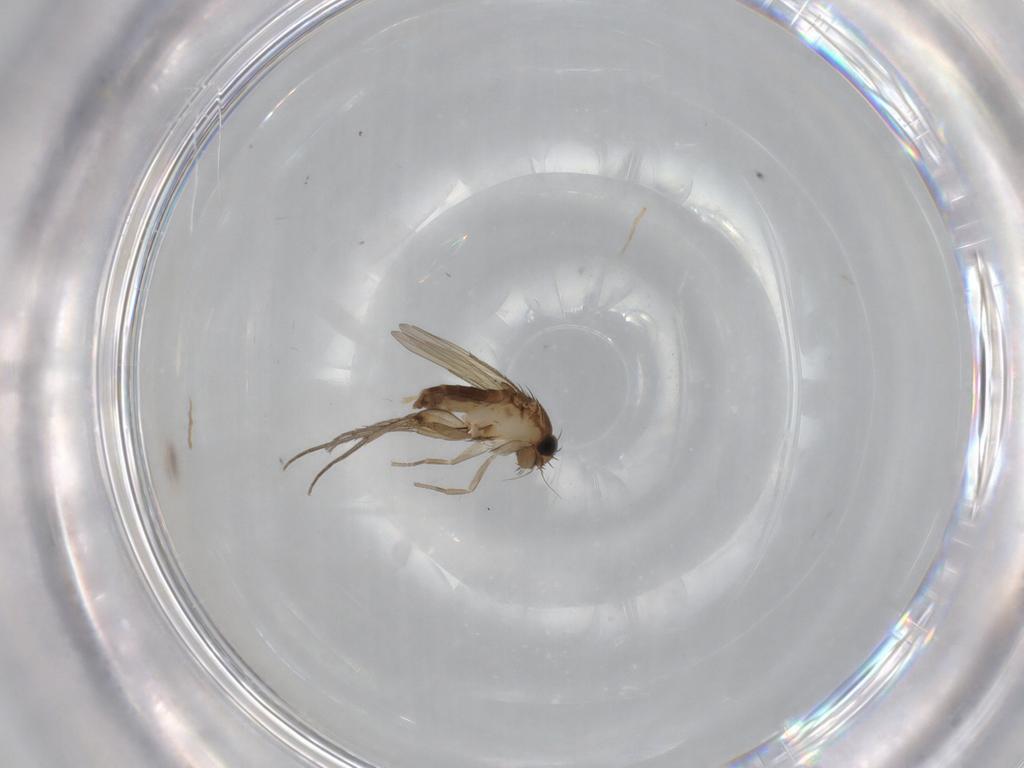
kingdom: Animalia
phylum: Arthropoda
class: Insecta
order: Diptera
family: Phoridae
